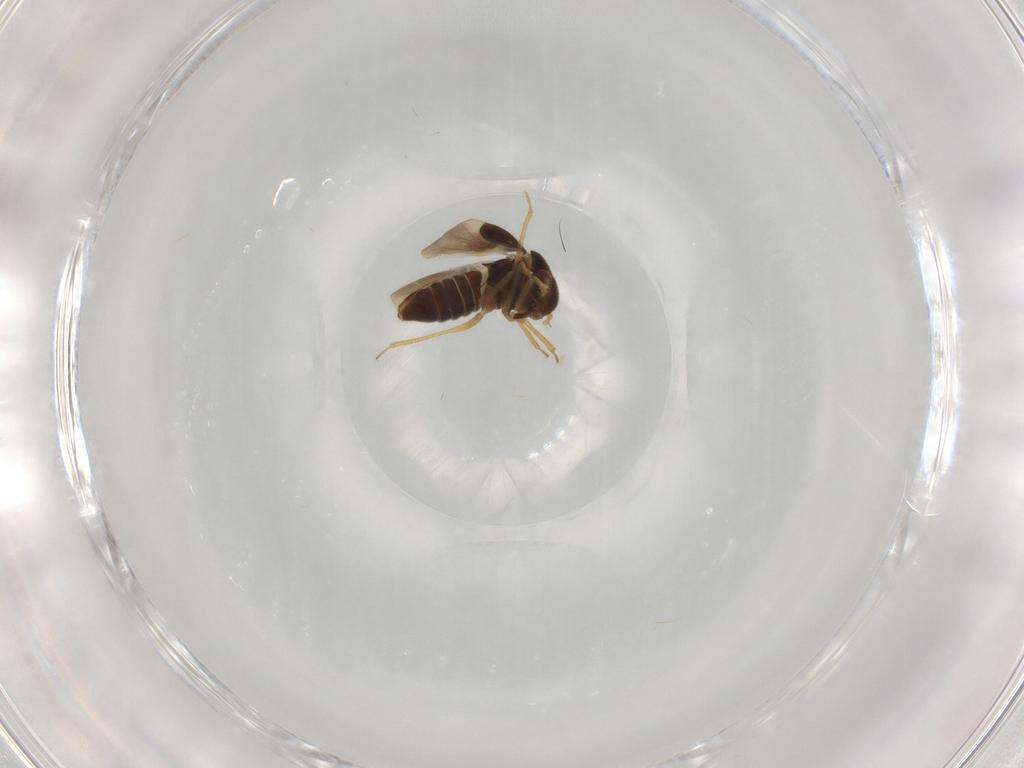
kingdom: Animalia
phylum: Arthropoda
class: Insecta
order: Hemiptera
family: Schizopteridae
